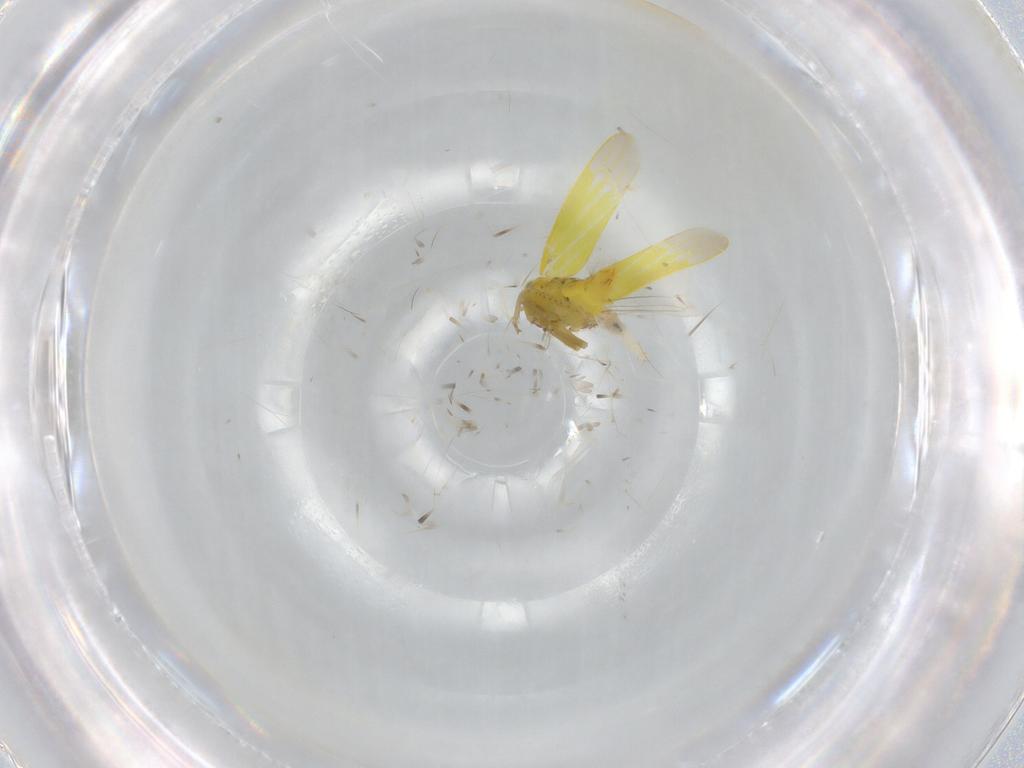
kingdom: Animalia
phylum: Arthropoda
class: Insecta
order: Hemiptera
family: Cicadellidae
